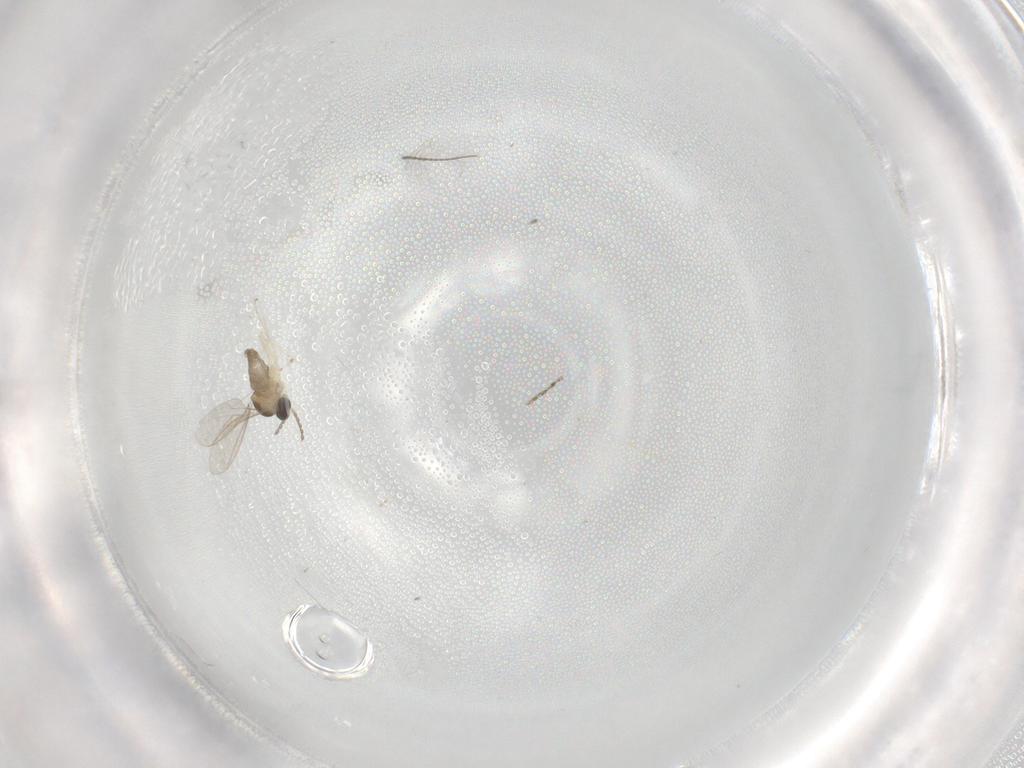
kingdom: Animalia
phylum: Arthropoda
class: Insecta
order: Diptera
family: Cecidomyiidae
